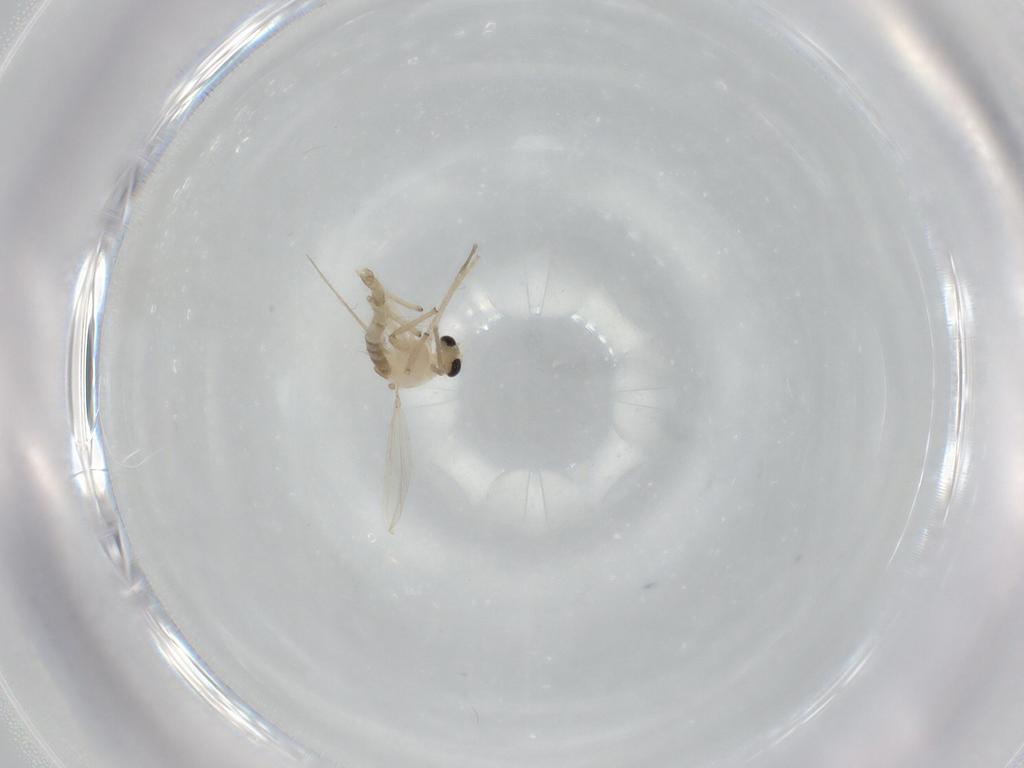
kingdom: Animalia
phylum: Arthropoda
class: Insecta
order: Diptera
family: Chironomidae
